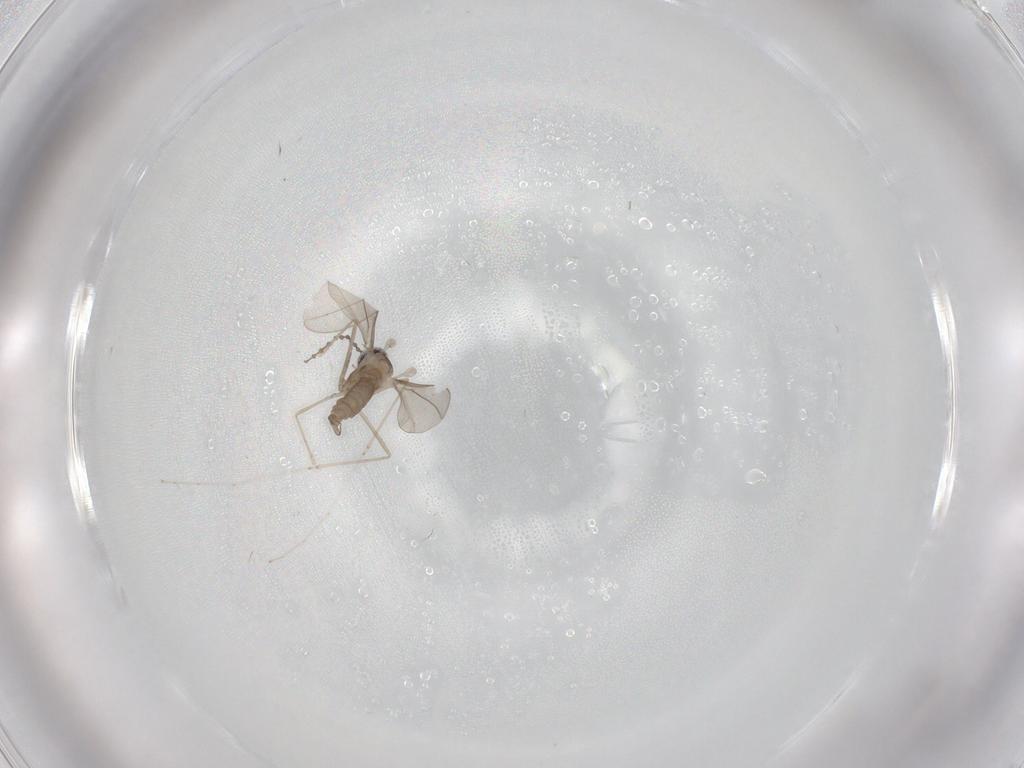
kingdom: Animalia
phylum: Arthropoda
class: Insecta
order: Diptera
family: Cecidomyiidae
